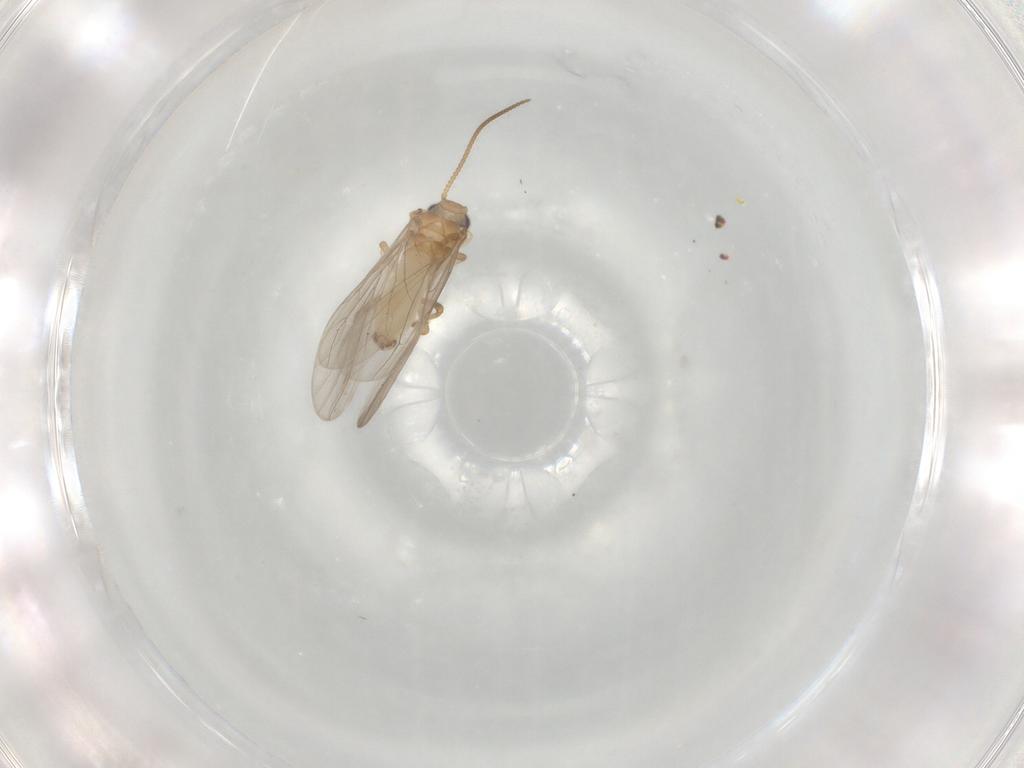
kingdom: Animalia
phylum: Arthropoda
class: Insecta
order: Neuroptera
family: Coniopterygidae
